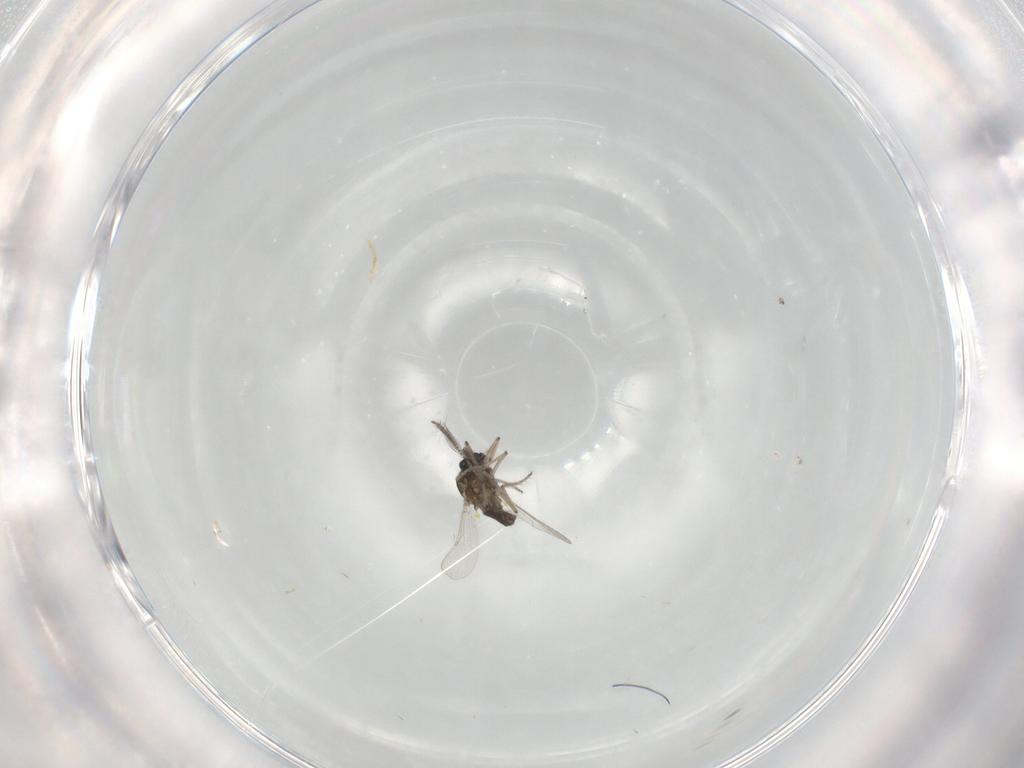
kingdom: Animalia
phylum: Arthropoda
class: Insecta
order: Diptera
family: Ceratopogonidae
